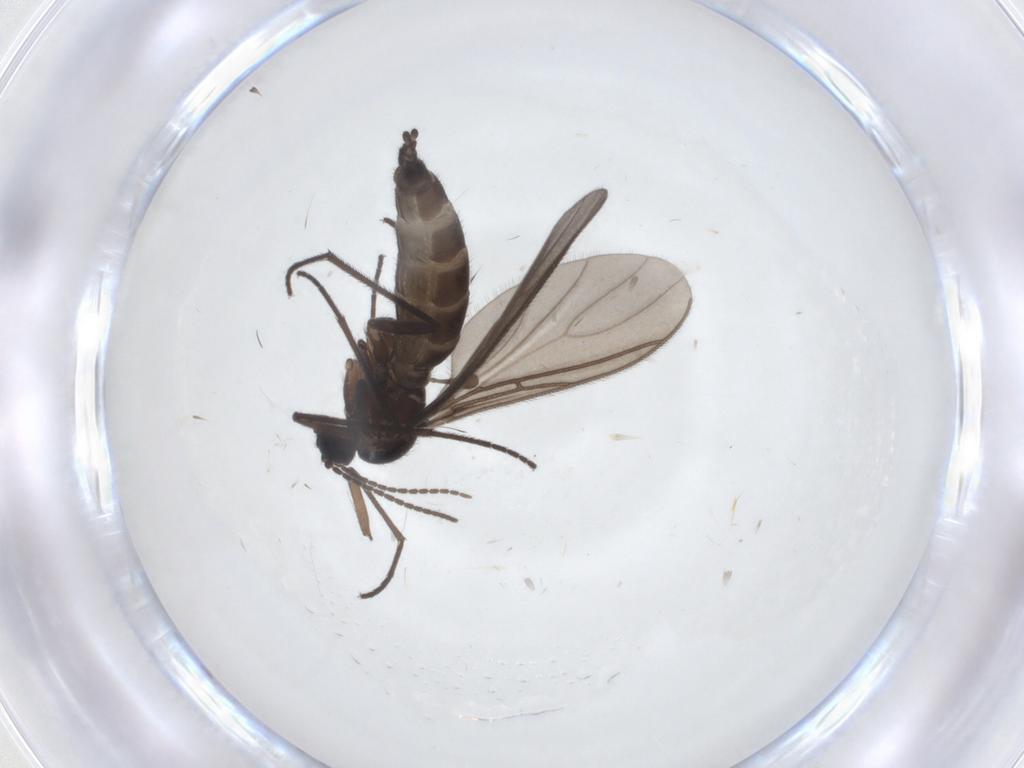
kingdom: Animalia
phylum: Arthropoda
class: Insecta
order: Diptera
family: Sciaridae
